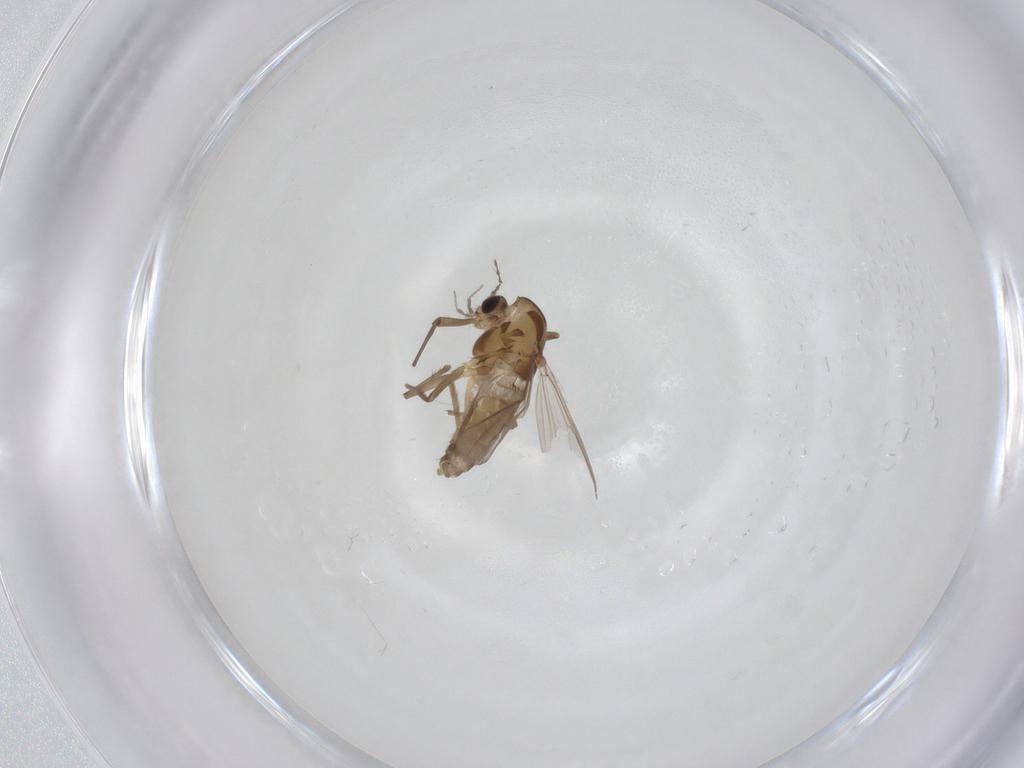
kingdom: Animalia
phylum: Arthropoda
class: Insecta
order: Diptera
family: Chironomidae
